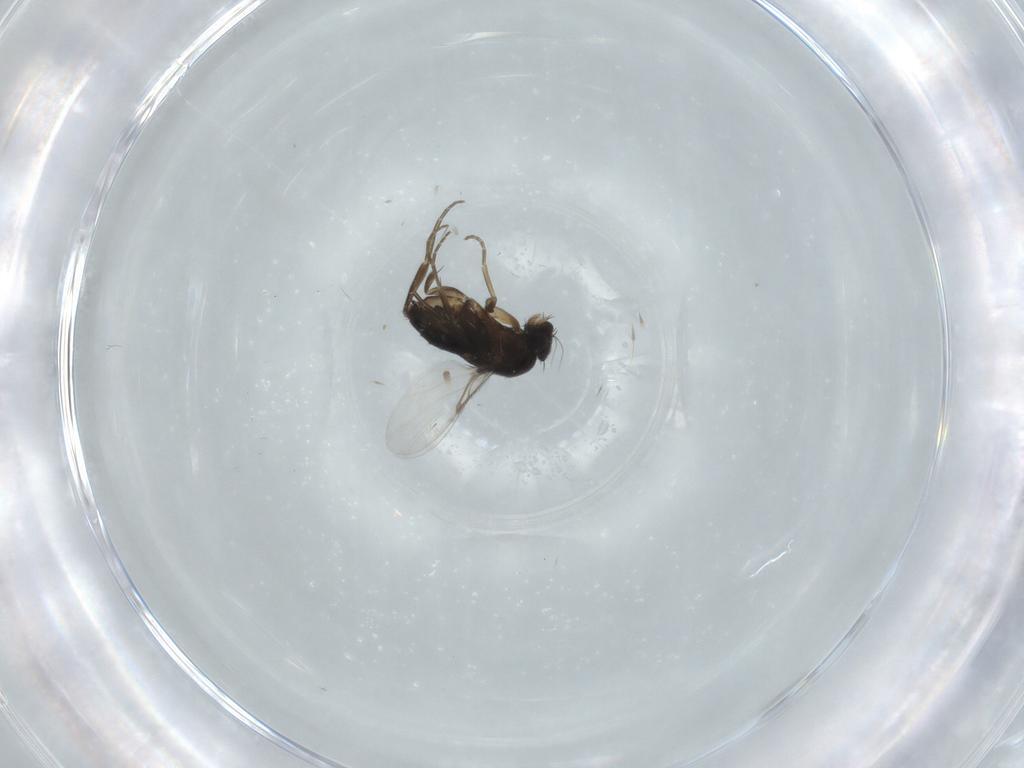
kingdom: Animalia
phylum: Arthropoda
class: Insecta
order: Diptera
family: Phoridae
